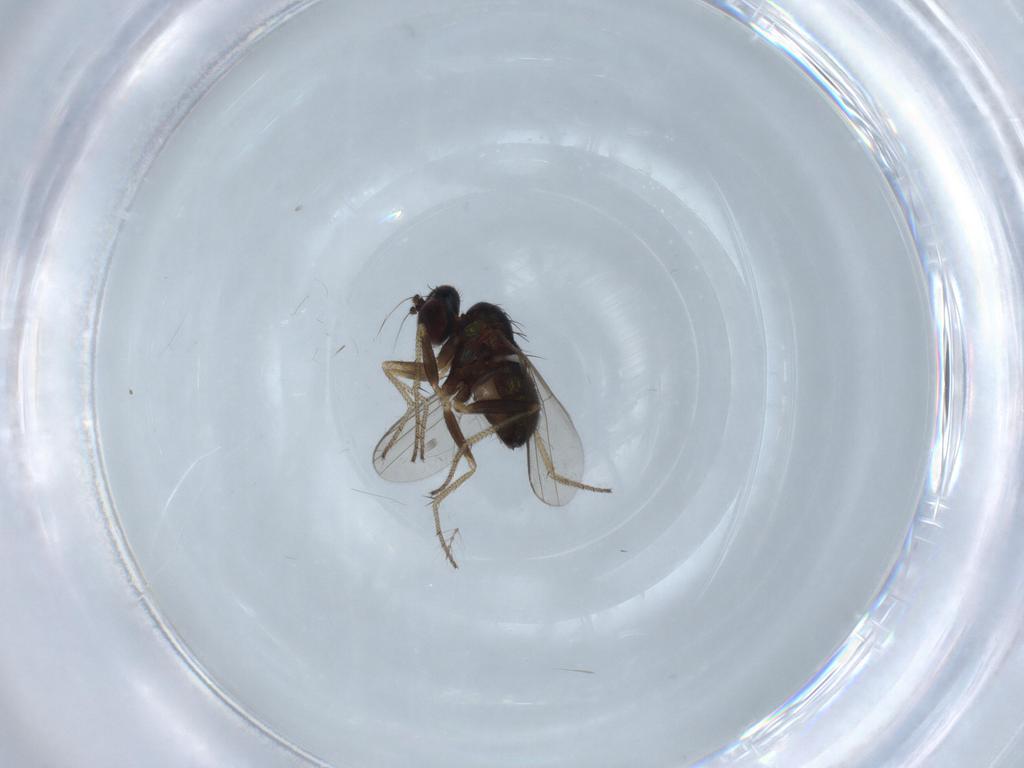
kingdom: Animalia
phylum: Arthropoda
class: Insecta
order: Diptera
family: Limoniidae
